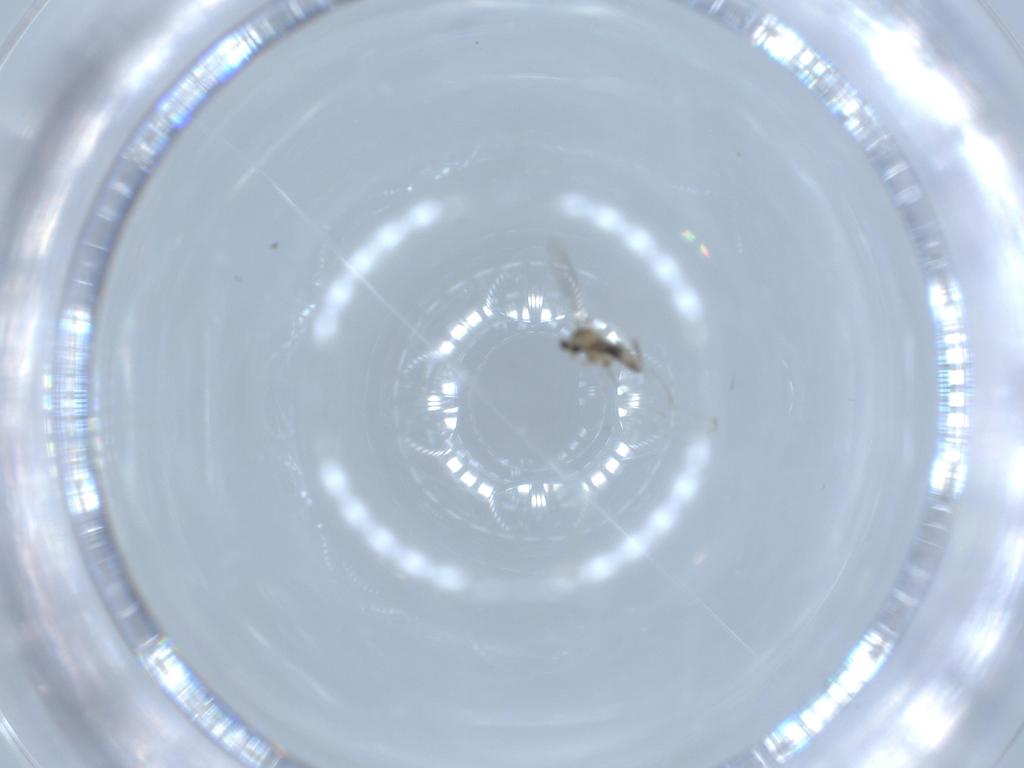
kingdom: Animalia
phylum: Arthropoda
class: Insecta
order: Diptera
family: Cecidomyiidae
